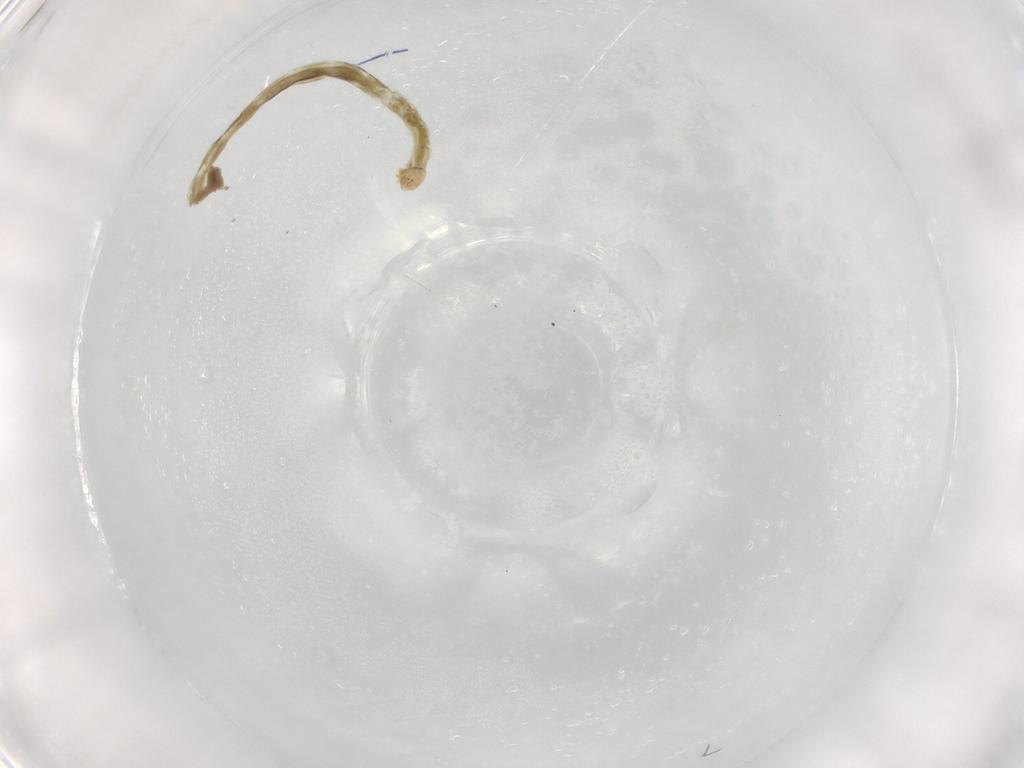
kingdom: Animalia
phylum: Arthropoda
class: Insecta
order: Diptera
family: Chironomidae
